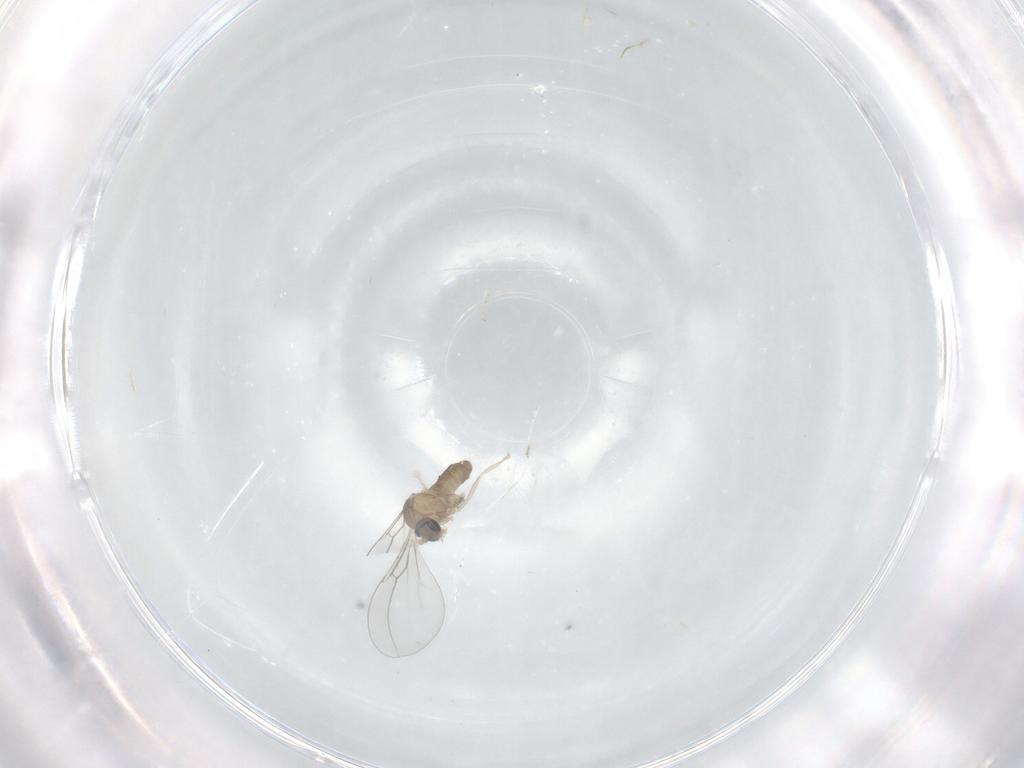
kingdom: Animalia
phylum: Arthropoda
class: Insecta
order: Diptera
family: Cecidomyiidae
